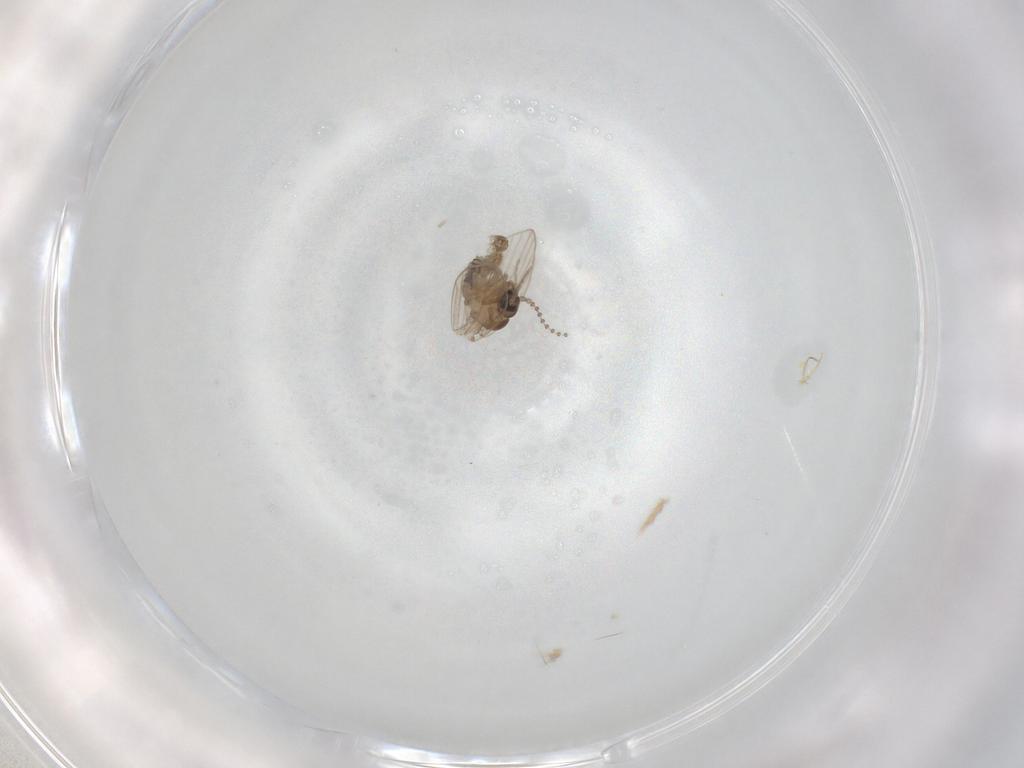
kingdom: Animalia
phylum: Arthropoda
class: Insecta
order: Diptera
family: Psychodidae
